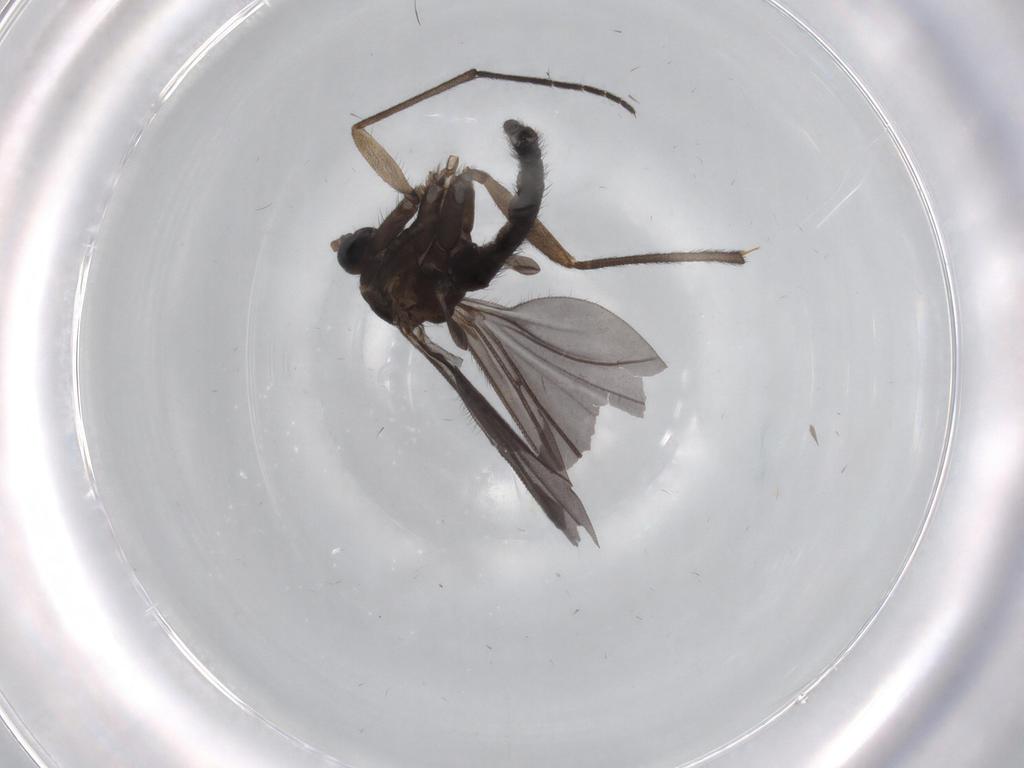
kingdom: Animalia
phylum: Arthropoda
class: Insecta
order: Diptera
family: Sciaridae
